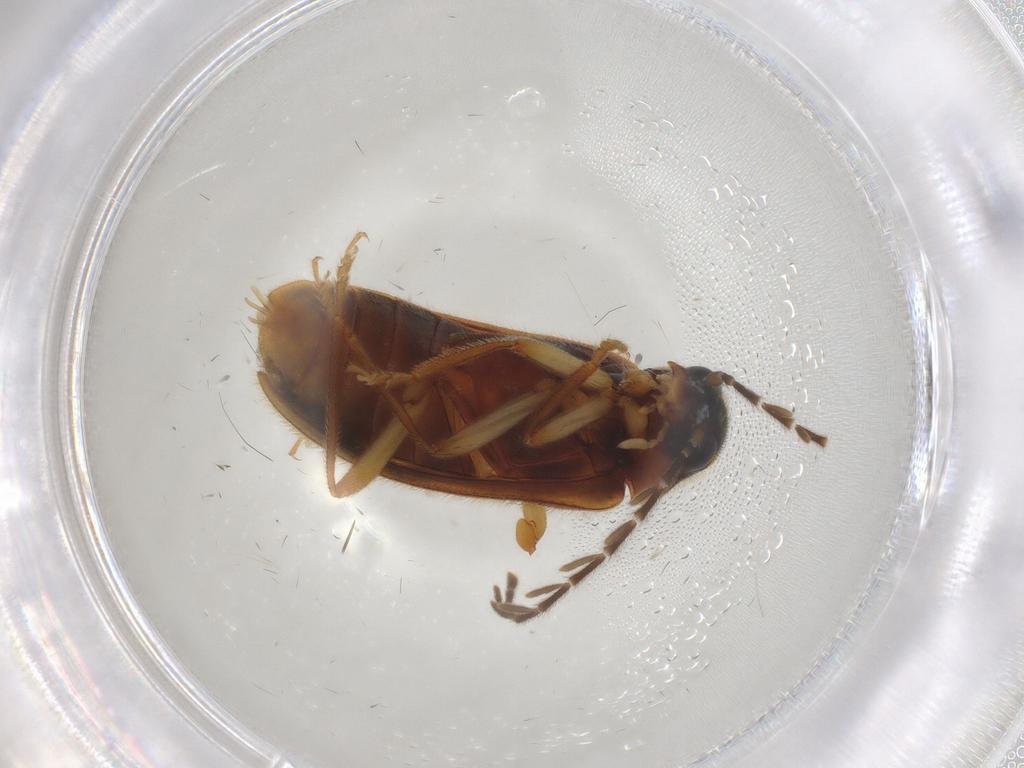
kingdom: Animalia
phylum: Arthropoda
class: Insecta
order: Coleoptera
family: Ptilodactylidae
